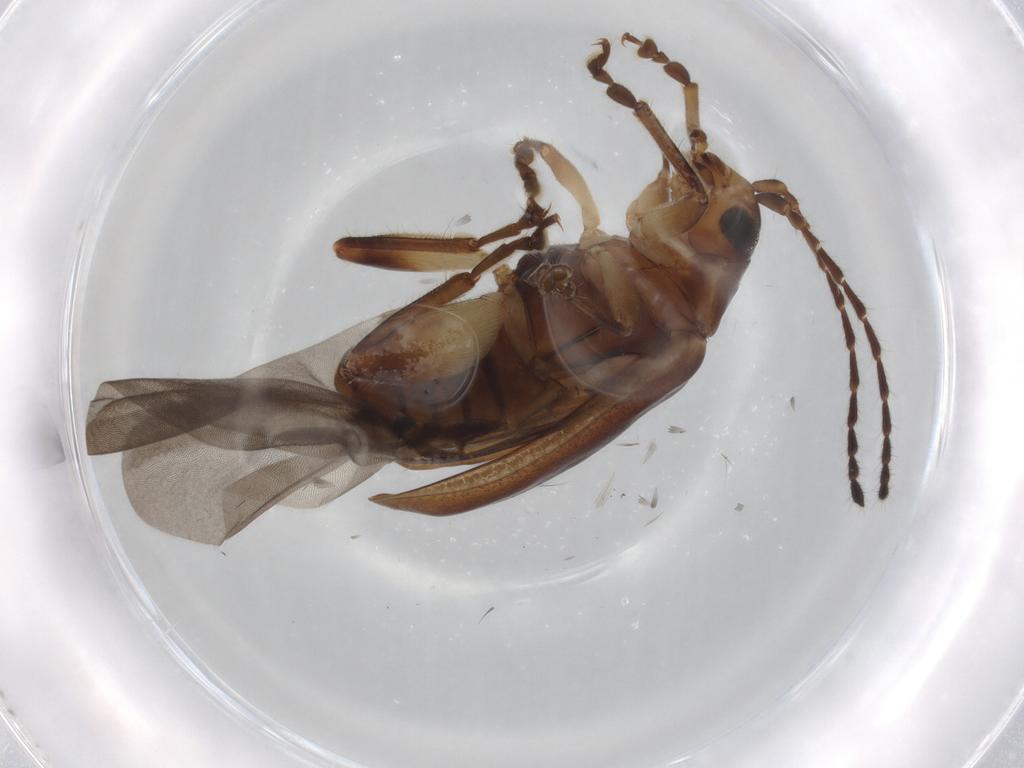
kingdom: Animalia
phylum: Arthropoda
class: Insecta
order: Coleoptera
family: Chrysomelidae
